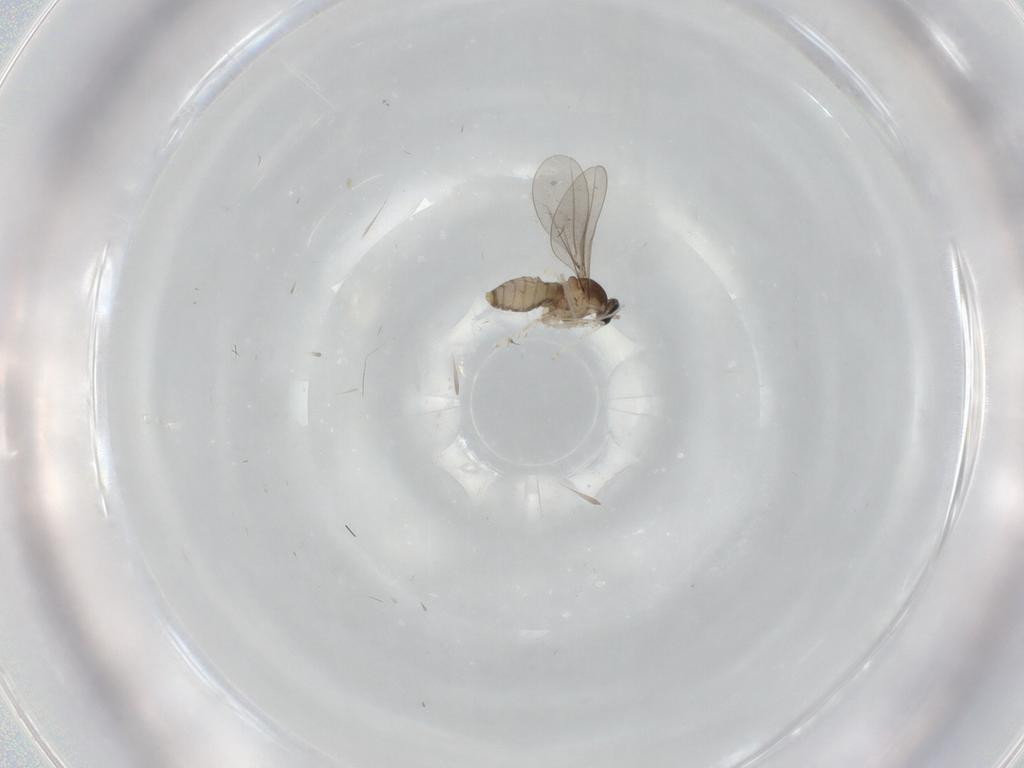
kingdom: Animalia
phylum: Arthropoda
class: Insecta
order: Diptera
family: Cecidomyiidae
